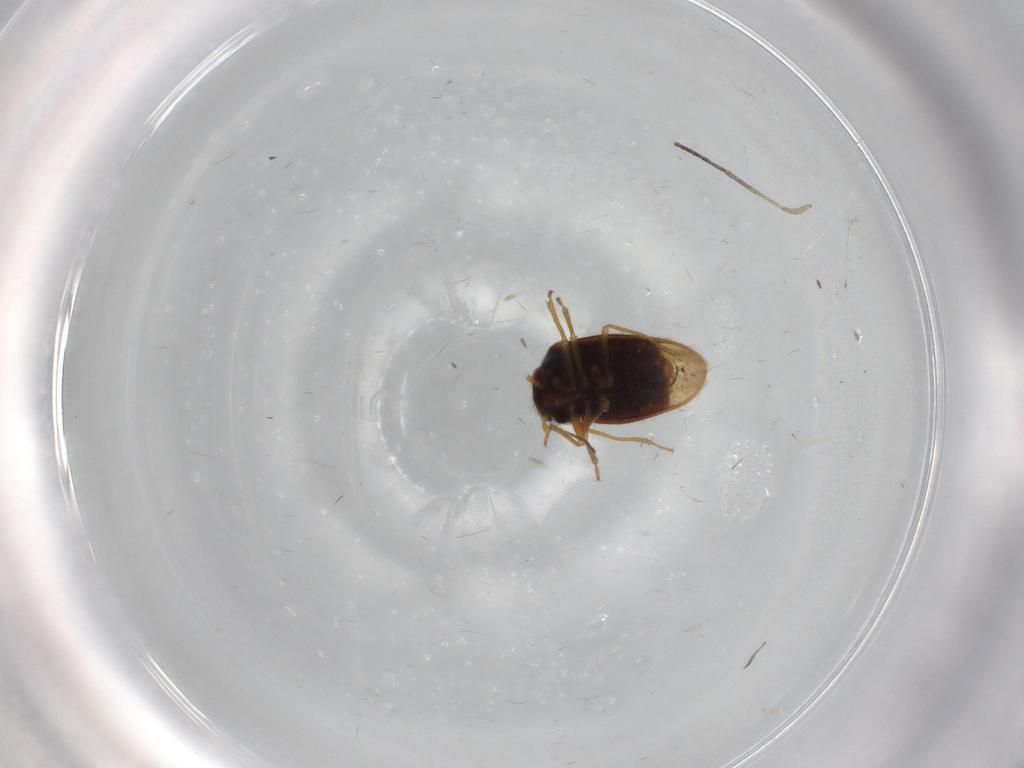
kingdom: Animalia
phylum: Arthropoda
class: Insecta
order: Hemiptera
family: Schizopteridae
